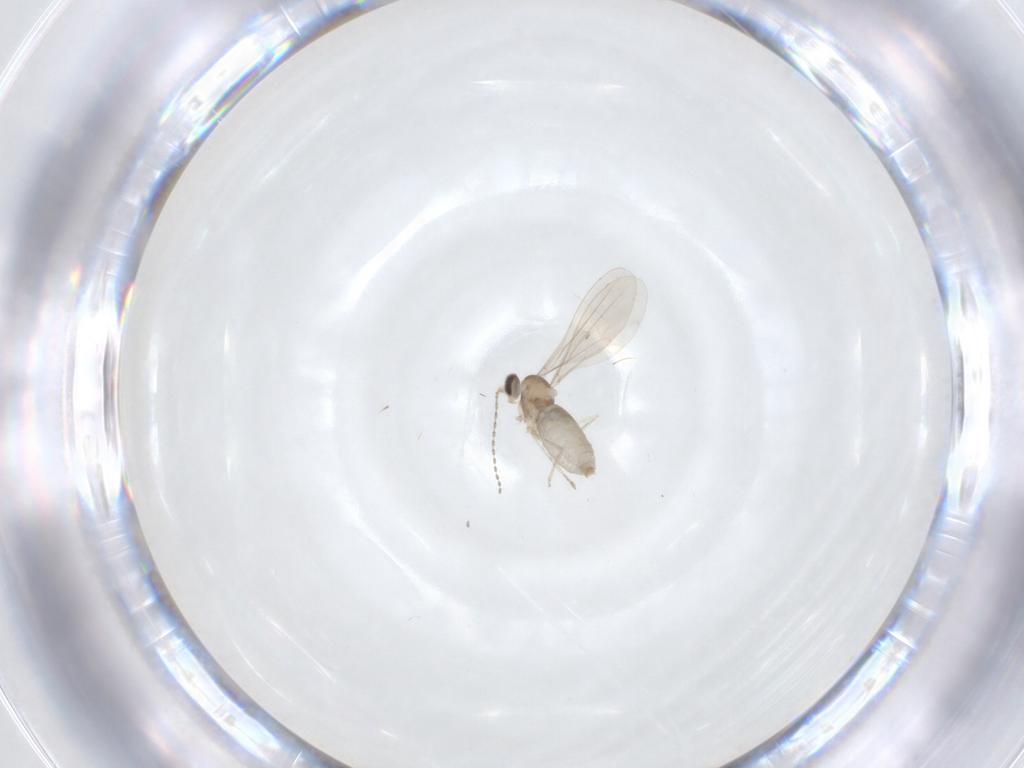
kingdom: Animalia
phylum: Arthropoda
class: Insecta
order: Diptera
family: Cecidomyiidae
